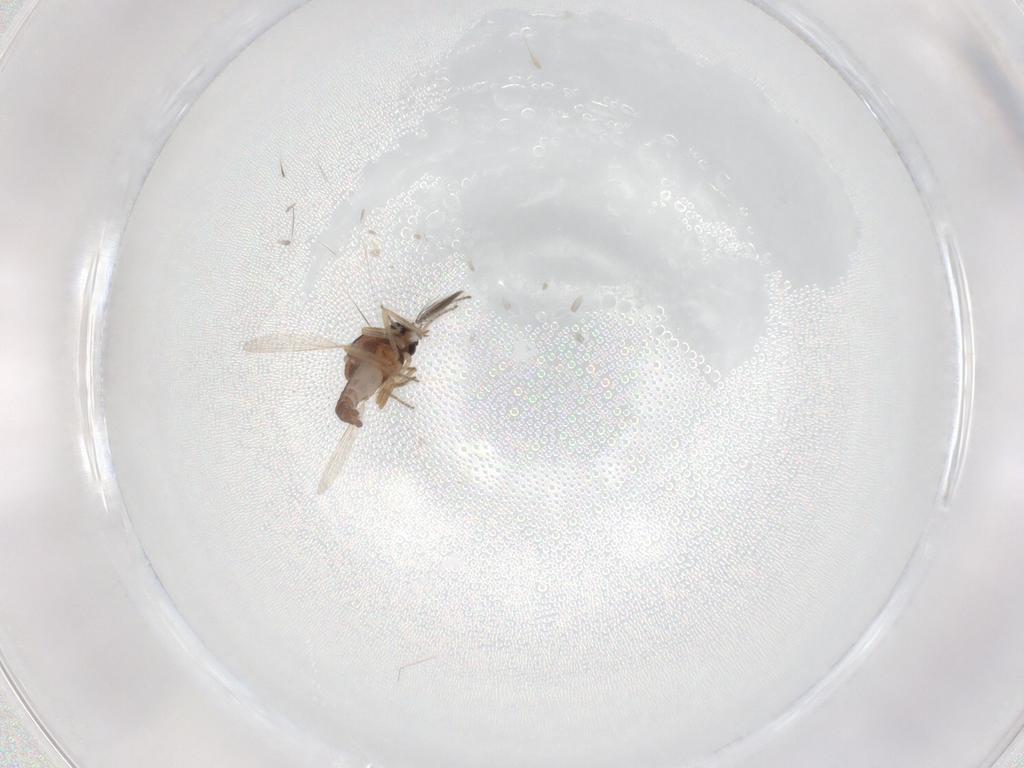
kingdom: Animalia
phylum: Arthropoda
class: Insecta
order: Diptera
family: Ceratopogonidae
